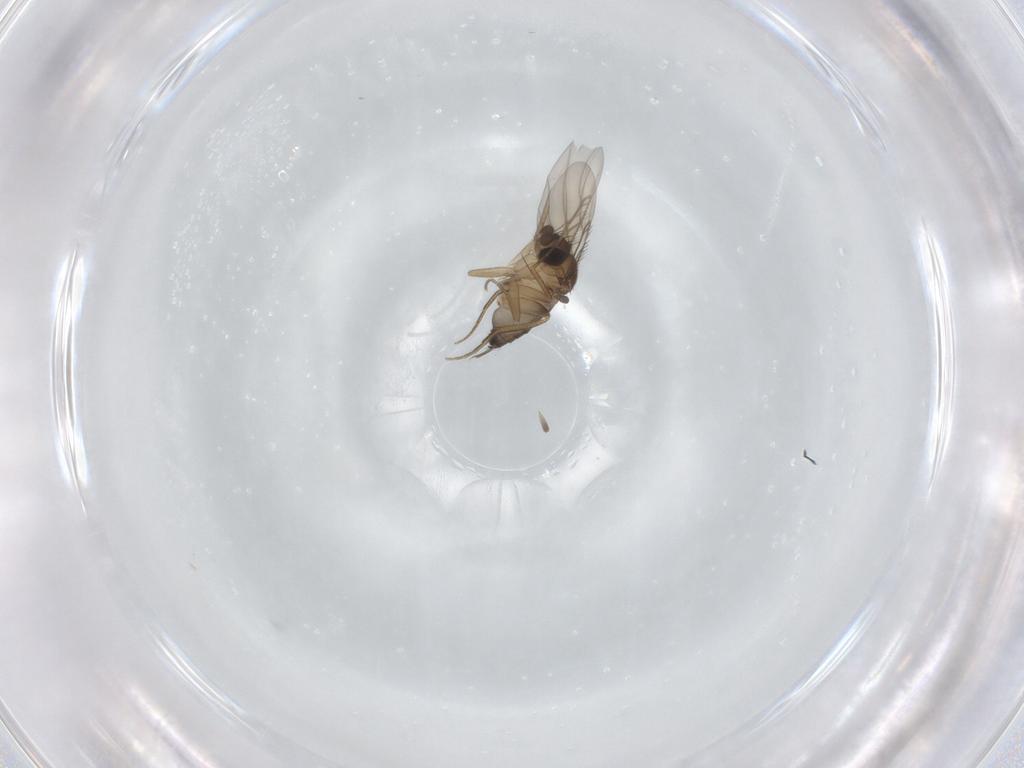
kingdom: Animalia
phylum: Arthropoda
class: Insecta
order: Diptera
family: Phoridae
